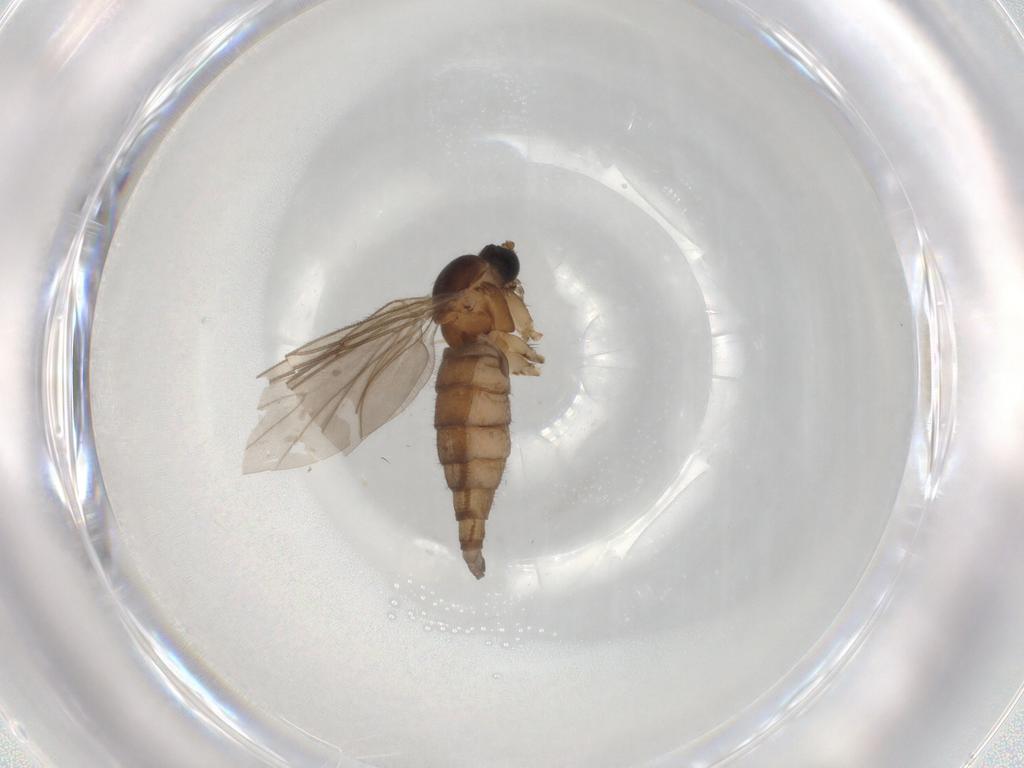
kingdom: Animalia
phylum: Arthropoda
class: Insecta
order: Diptera
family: Sciaridae
